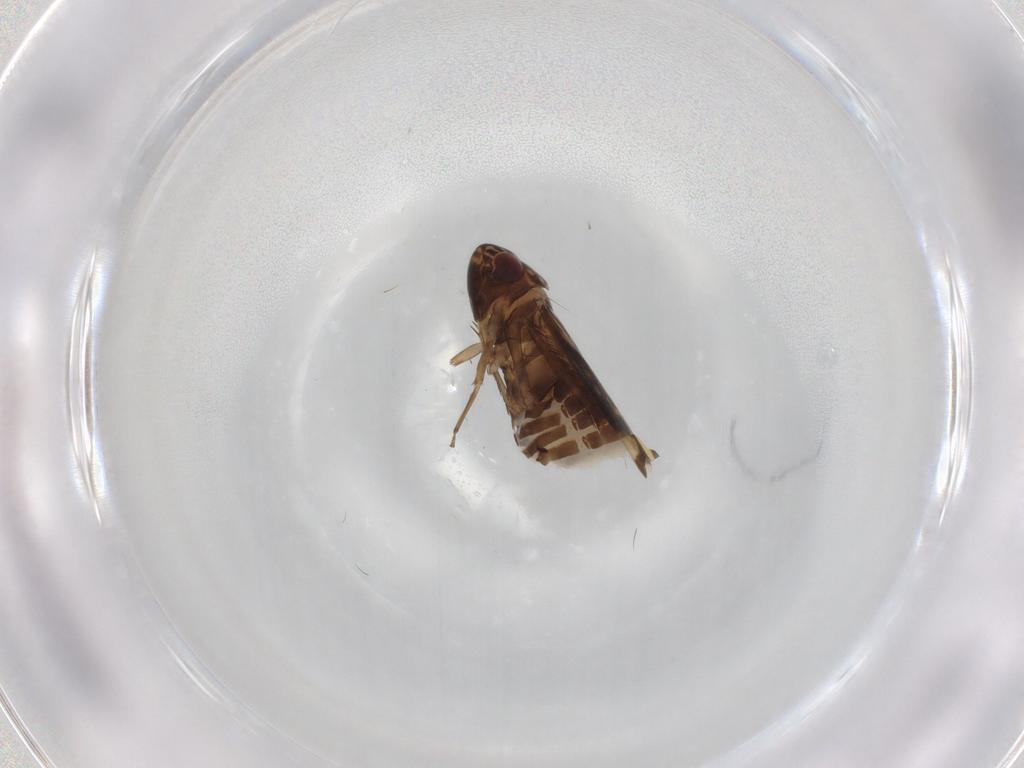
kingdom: Animalia
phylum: Arthropoda
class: Insecta
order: Hemiptera
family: Cicadellidae
